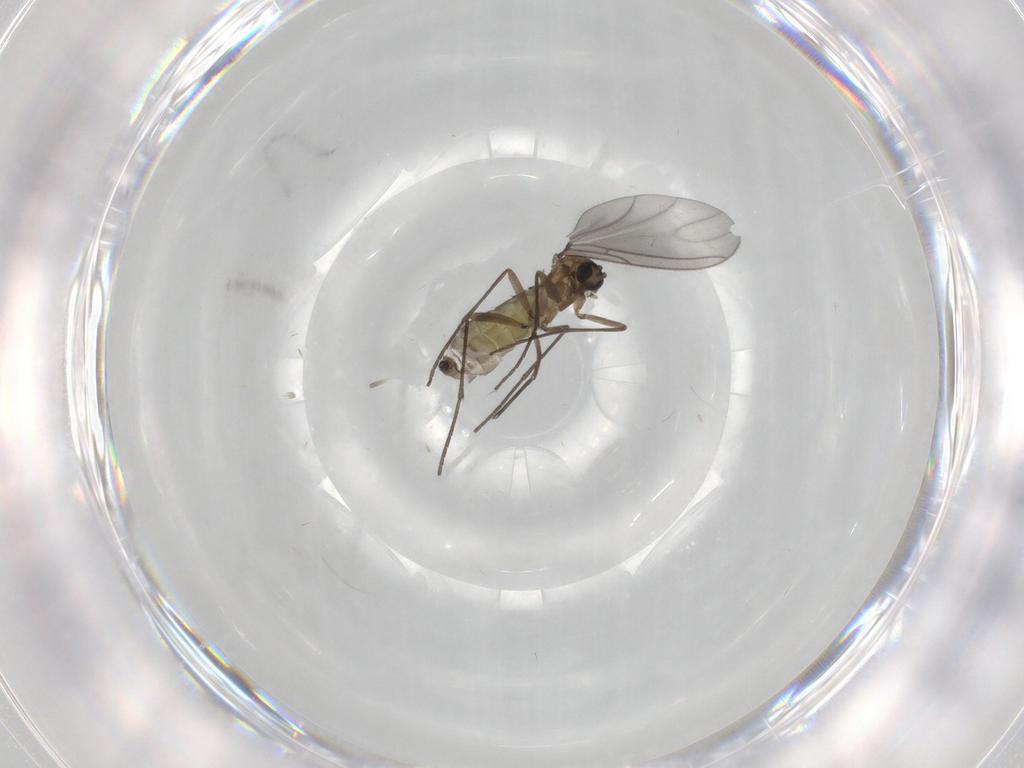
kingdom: Animalia
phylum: Arthropoda
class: Insecta
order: Diptera
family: Sciaridae
